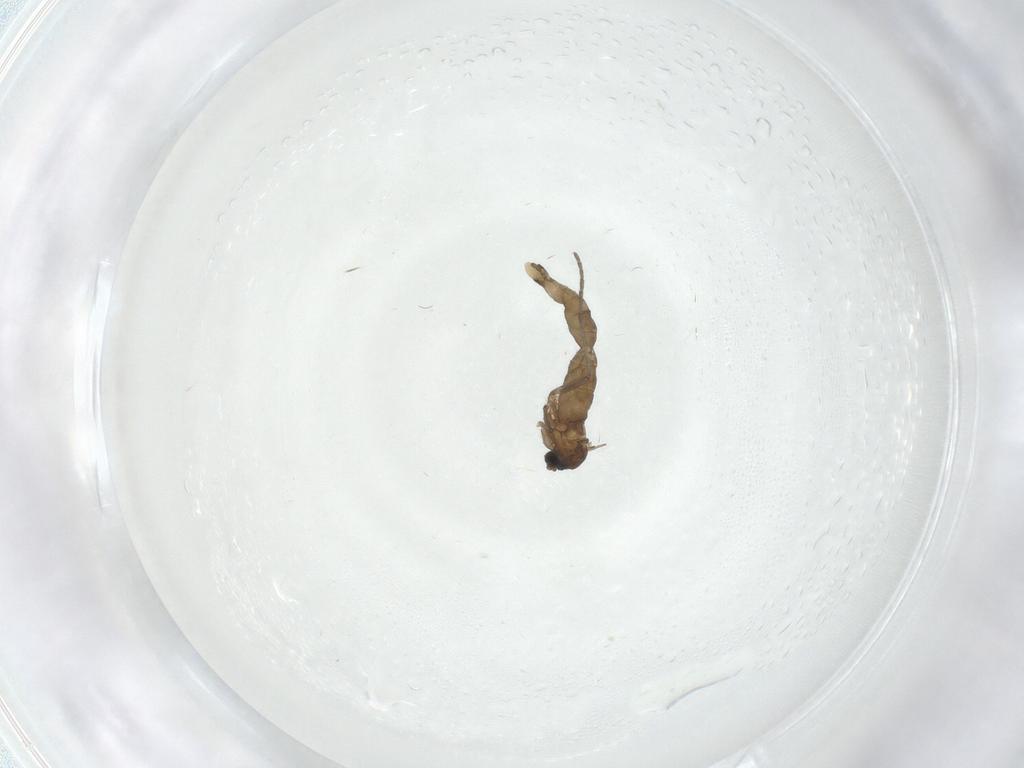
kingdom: Animalia
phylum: Arthropoda
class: Insecta
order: Diptera
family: Sciaridae
